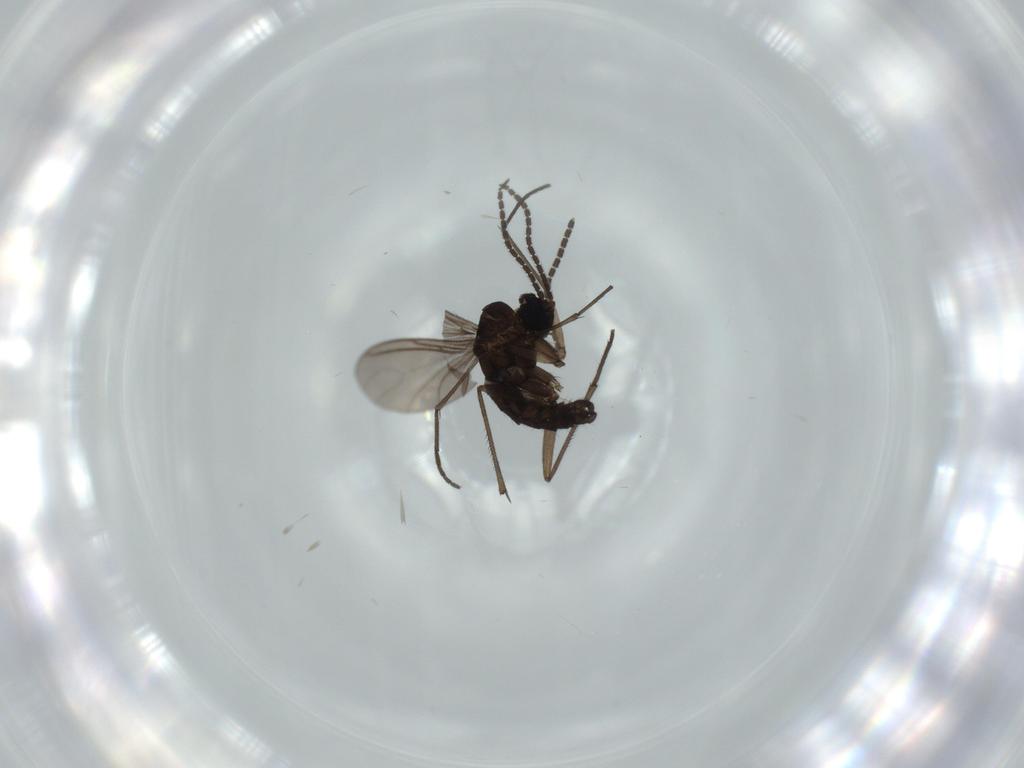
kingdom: Animalia
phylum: Arthropoda
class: Insecta
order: Diptera
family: Sciaridae
